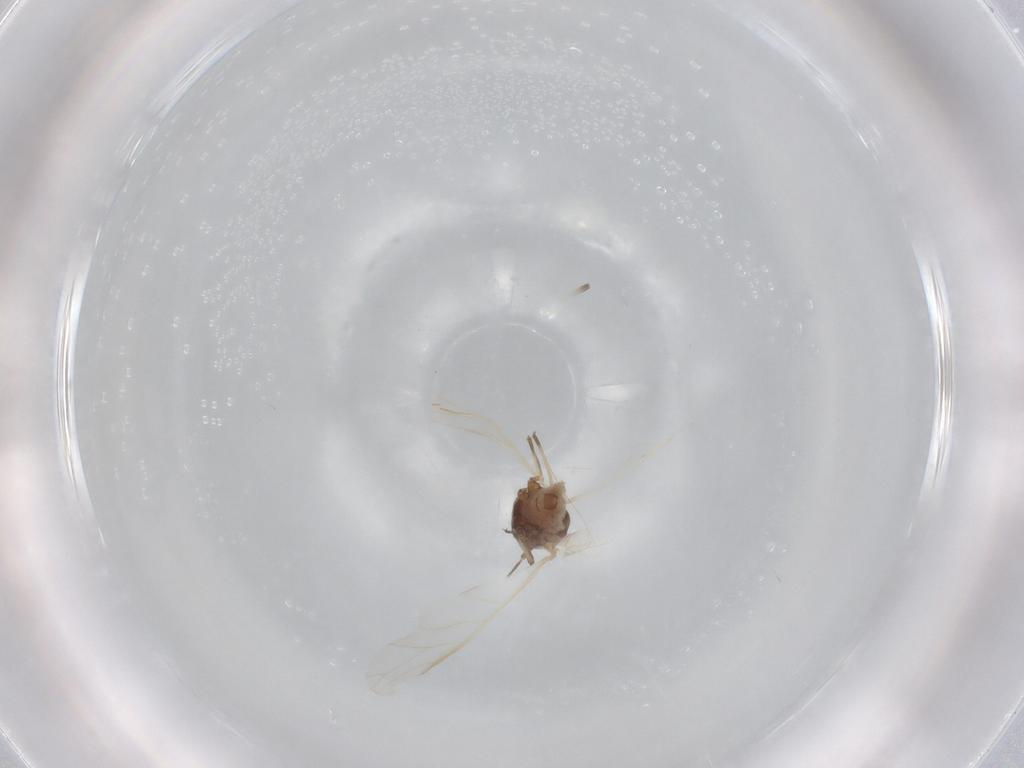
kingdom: Animalia
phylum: Arthropoda
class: Insecta
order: Hemiptera
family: Aphididae
